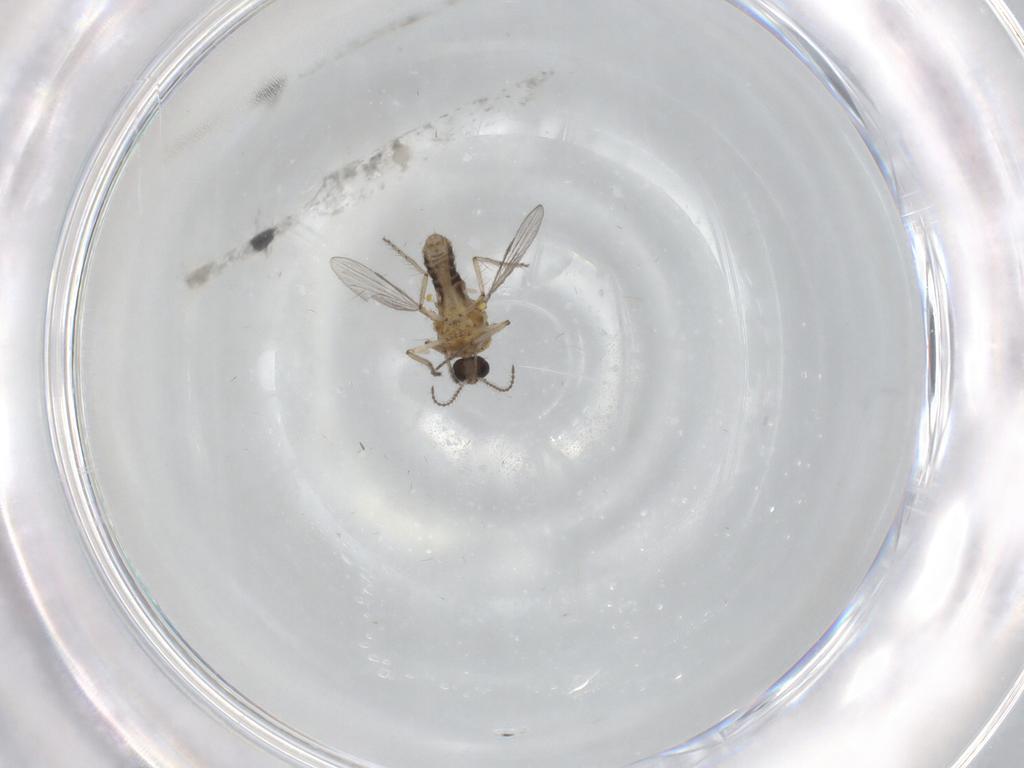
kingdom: Animalia
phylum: Arthropoda
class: Insecta
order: Diptera
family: Ceratopogonidae
